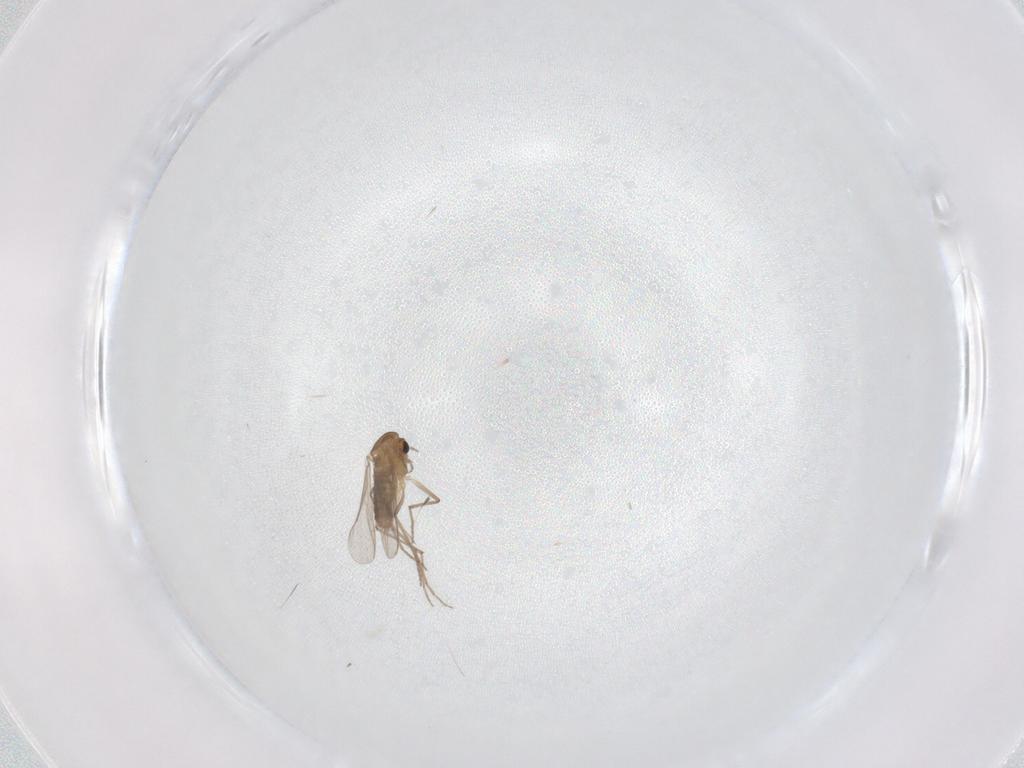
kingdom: Animalia
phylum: Arthropoda
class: Insecta
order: Diptera
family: Chironomidae
